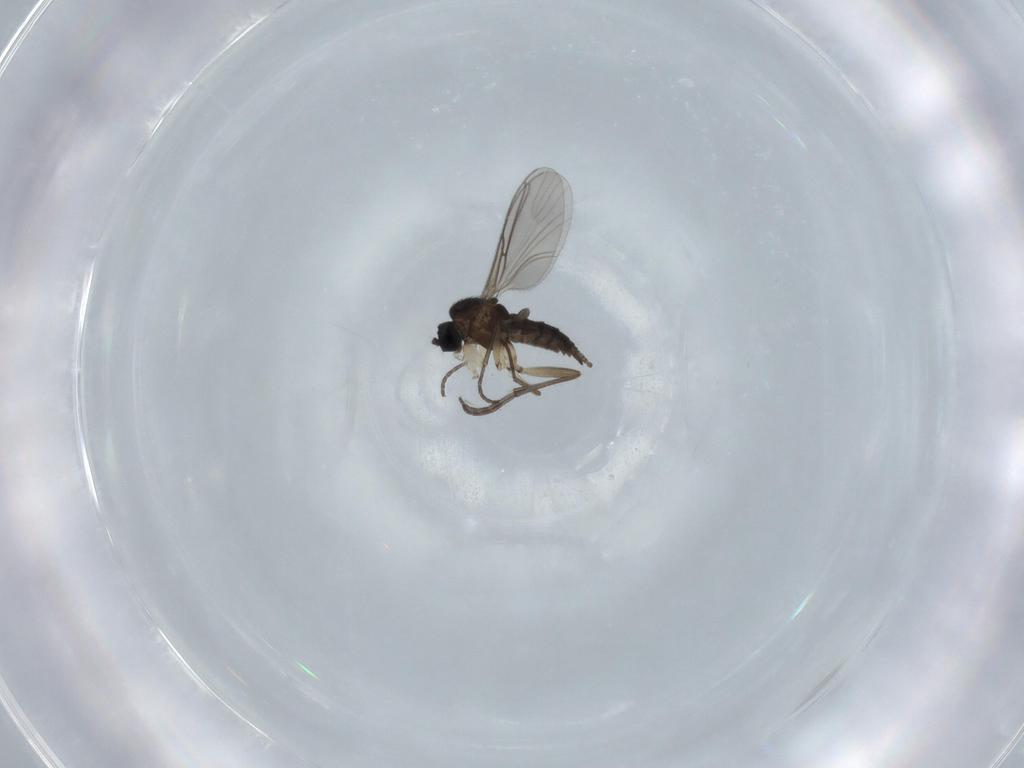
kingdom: Animalia
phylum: Arthropoda
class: Insecta
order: Diptera
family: Sciaridae
